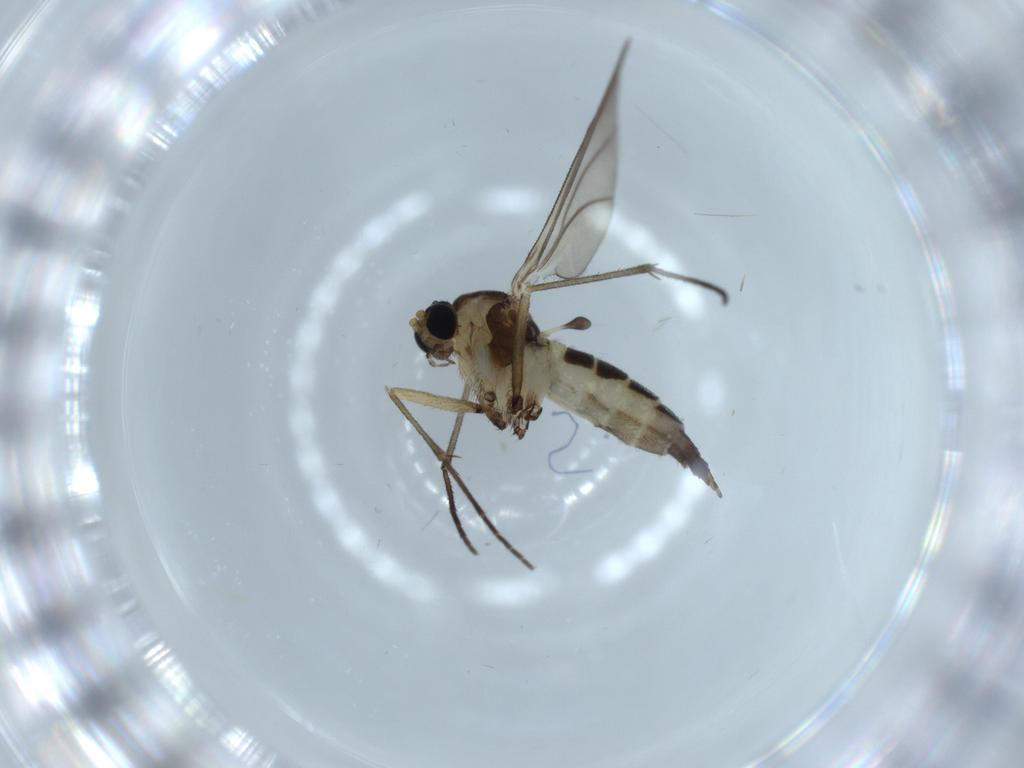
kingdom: Animalia
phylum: Arthropoda
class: Insecta
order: Diptera
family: Sciaridae
